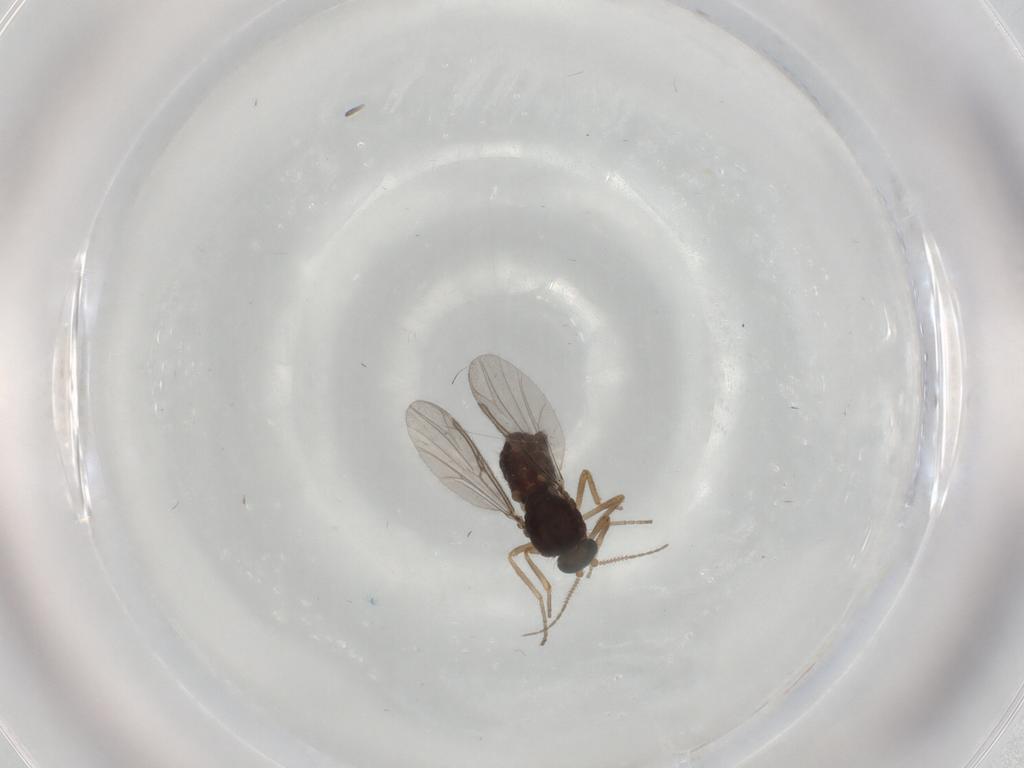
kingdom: Animalia
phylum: Arthropoda
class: Insecta
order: Diptera
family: Ceratopogonidae
